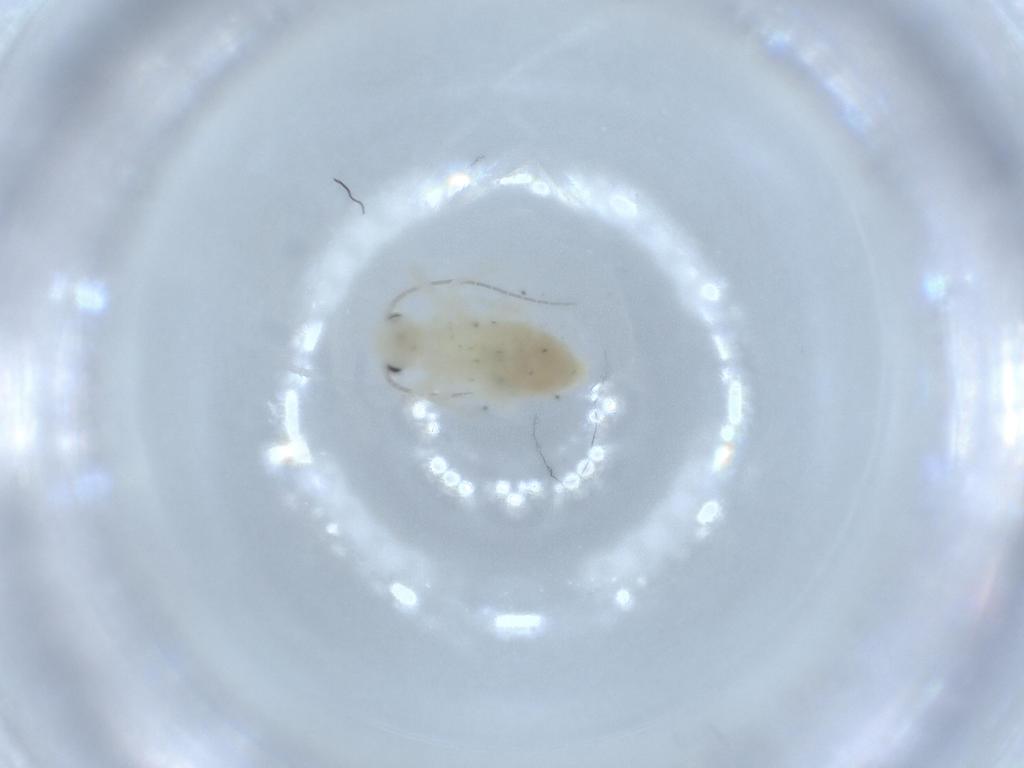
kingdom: Animalia
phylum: Arthropoda
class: Insecta
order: Psocodea
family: Caeciliusidae
